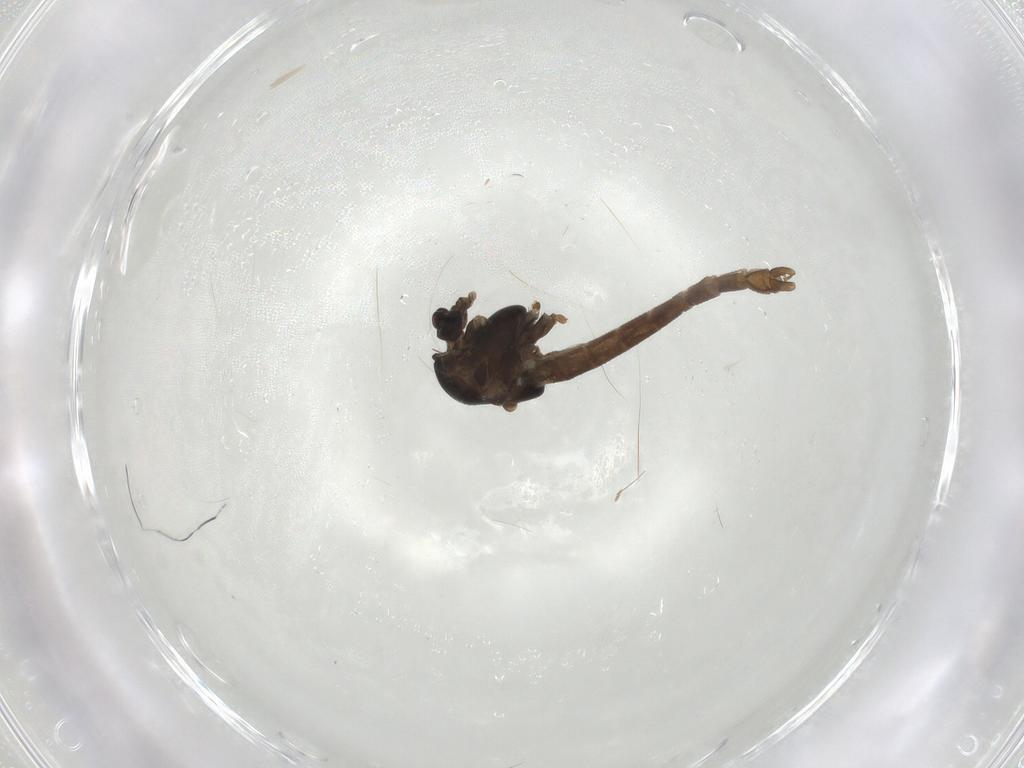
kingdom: Animalia
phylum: Arthropoda
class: Insecta
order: Diptera
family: Chironomidae
